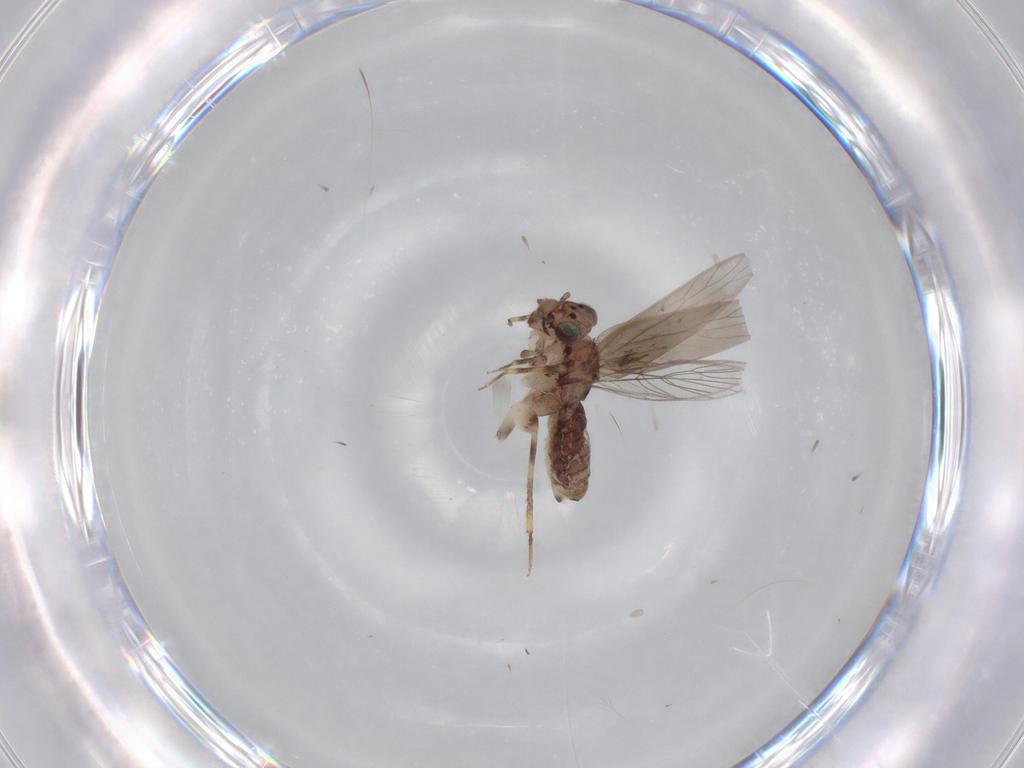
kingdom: Animalia
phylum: Arthropoda
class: Insecta
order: Psocodea
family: Lepidopsocidae
